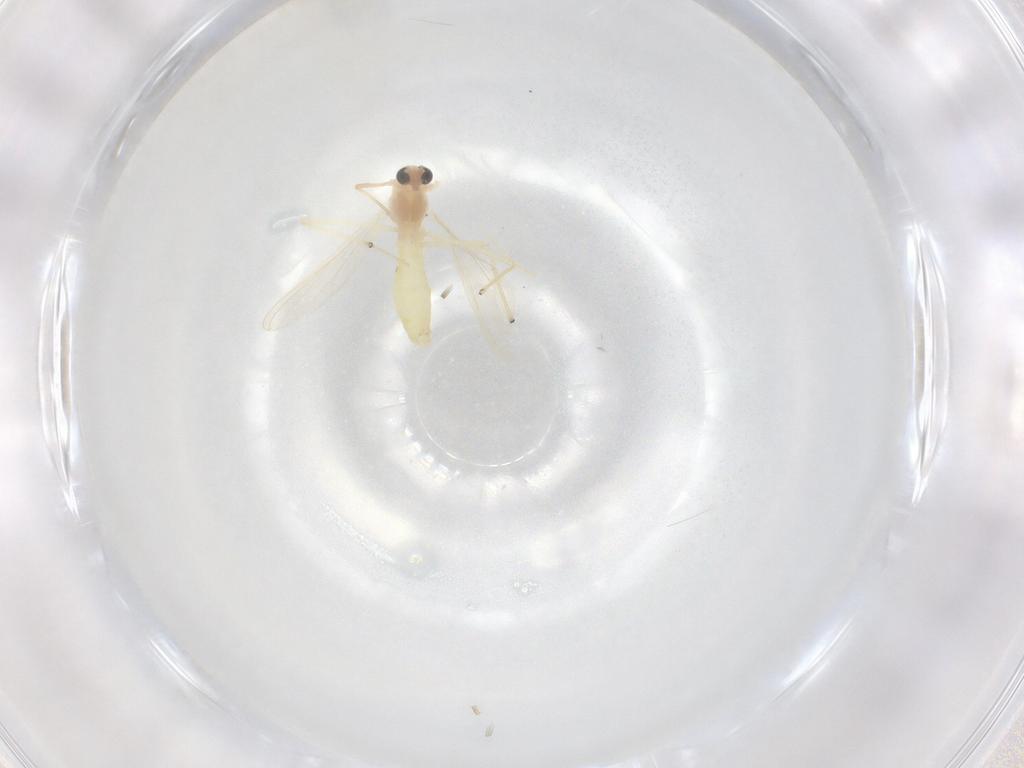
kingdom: Animalia
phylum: Arthropoda
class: Insecta
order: Diptera
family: Chironomidae
